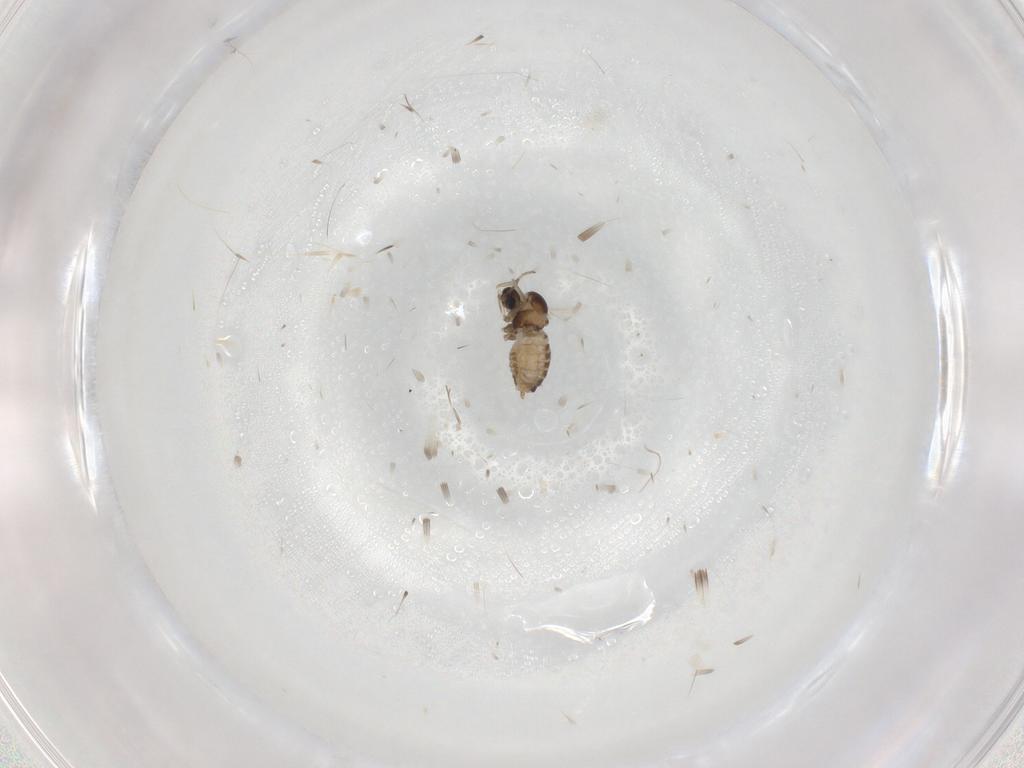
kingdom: Animalia
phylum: Arthropoda
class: Insecta
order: Diptera
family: Cecidomyiidae
